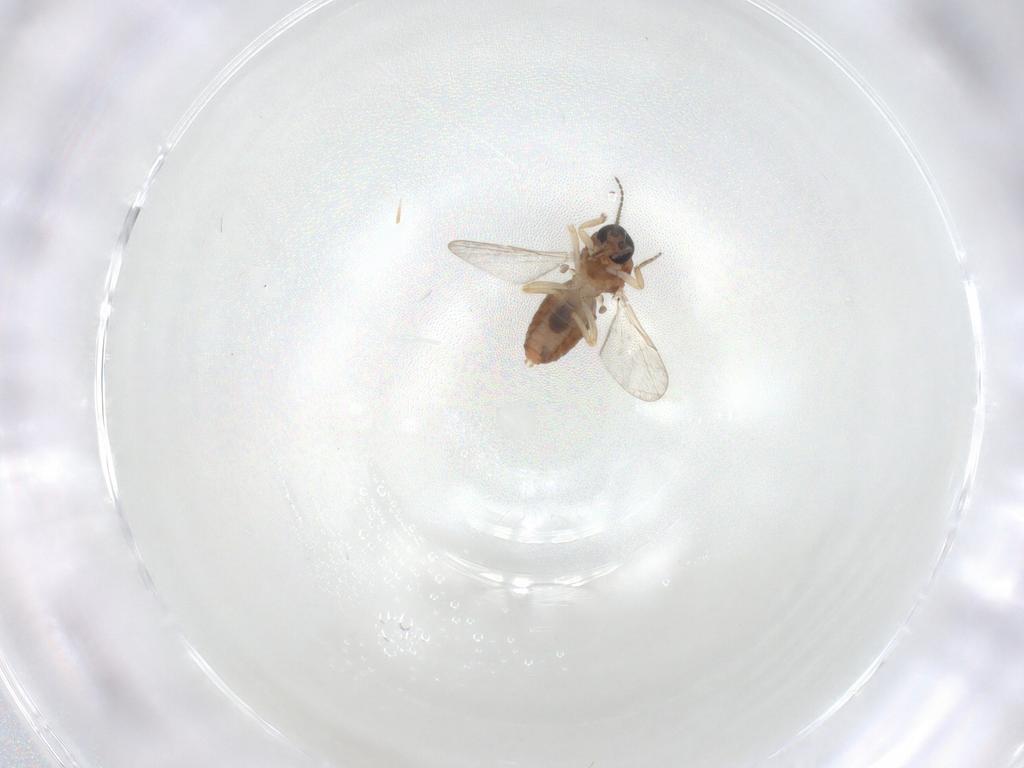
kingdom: Animalia
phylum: Arthropoda
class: Insecta
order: Diptera
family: Ceratopogonidae
